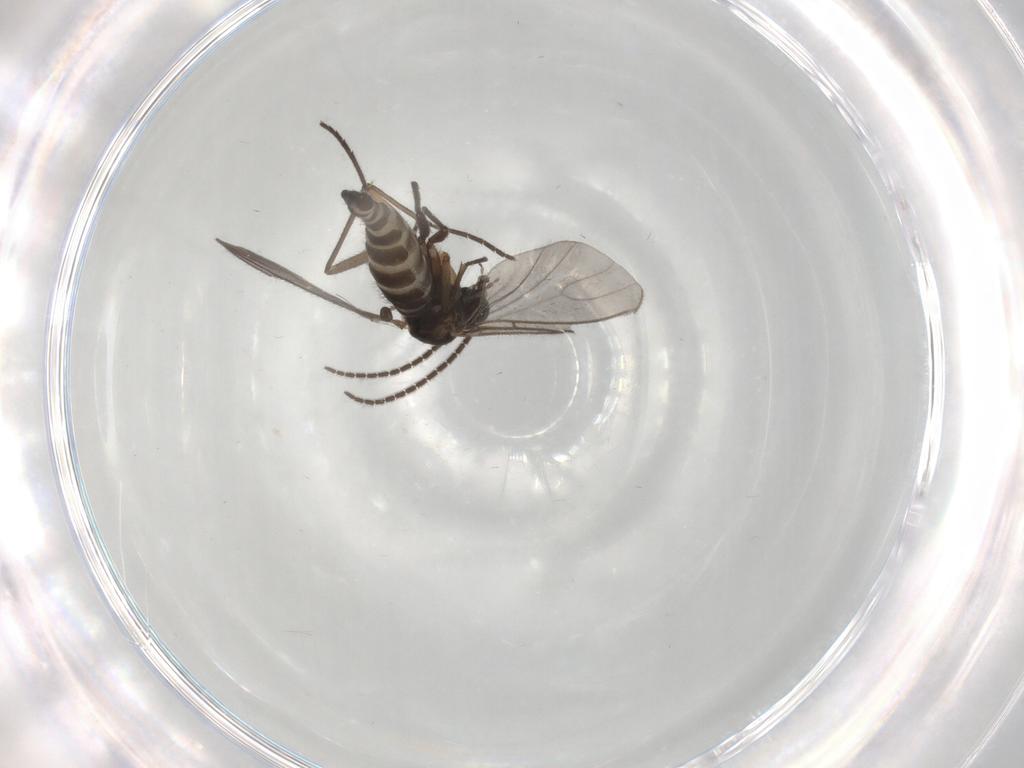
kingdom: Animalia
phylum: Arthropoda
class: Insecta
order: Diptera
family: Sciaridae
